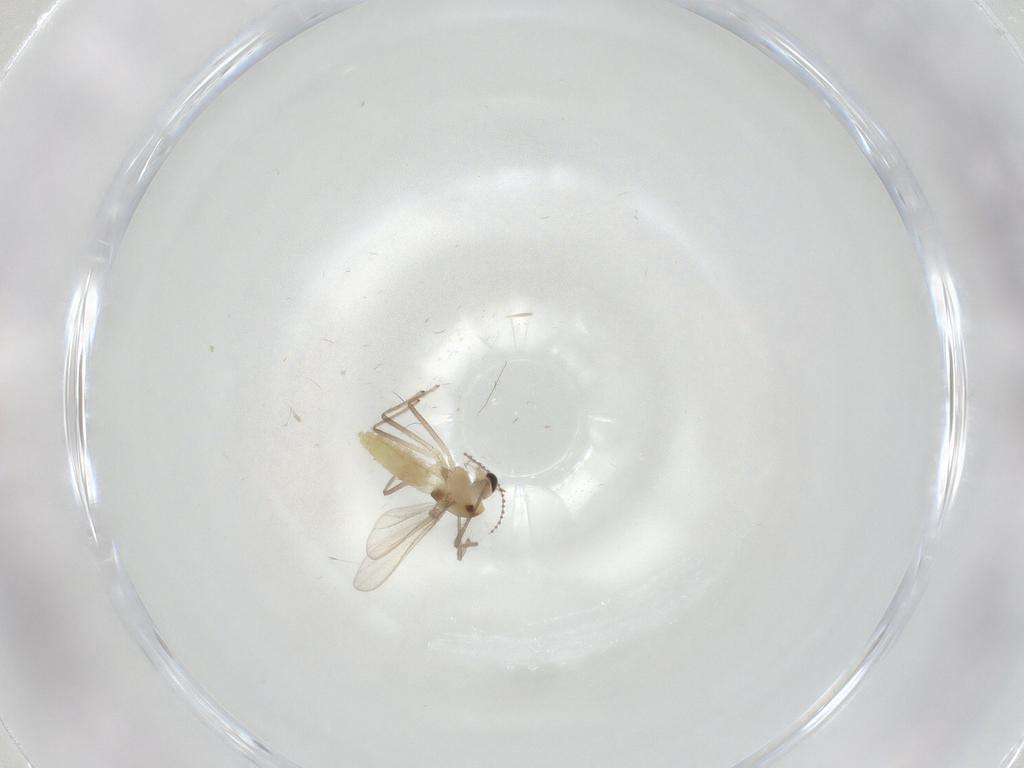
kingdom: Animalia
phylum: Arthropoda
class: Insecta
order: Diptera
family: Chironomidae
